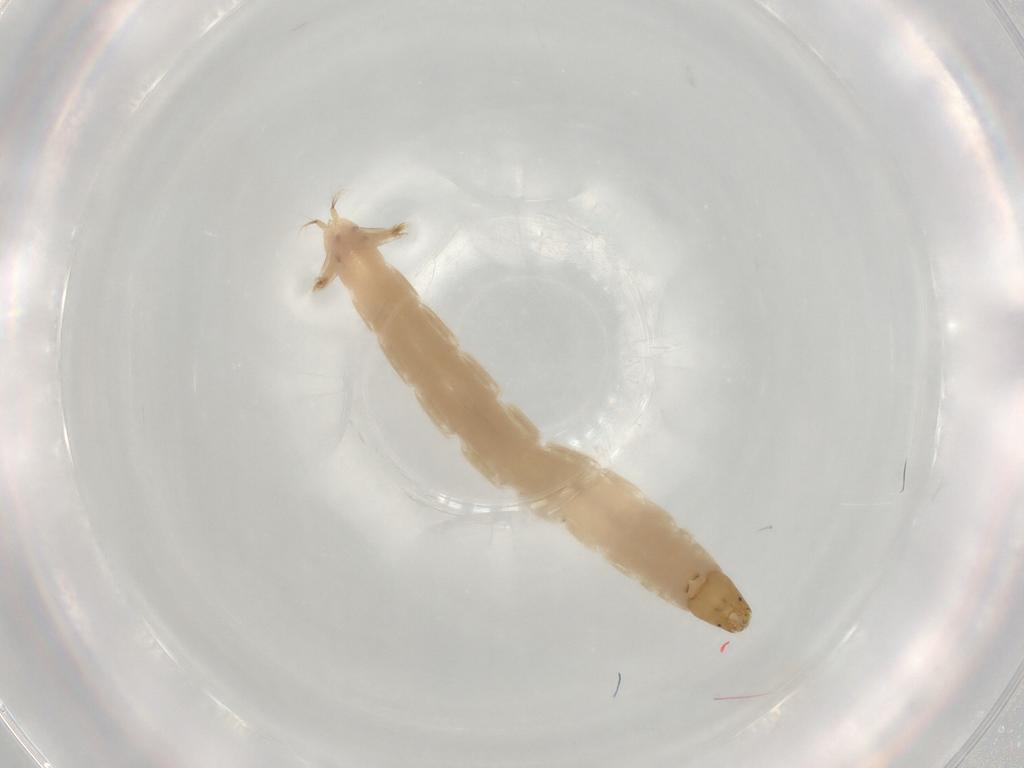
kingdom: Animalia
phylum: Arthropoda
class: Insecta
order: Diptera
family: Chironomidae
